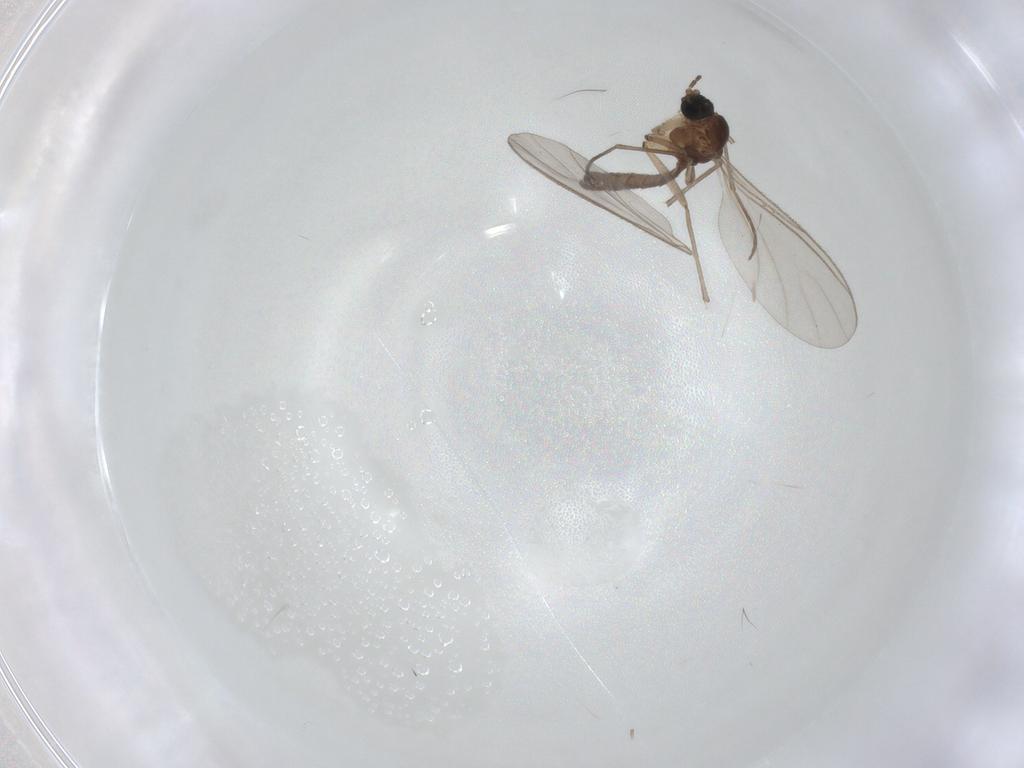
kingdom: Animalia
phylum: Arthropoda
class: Insecta
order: Diptera
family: Sciaridae
